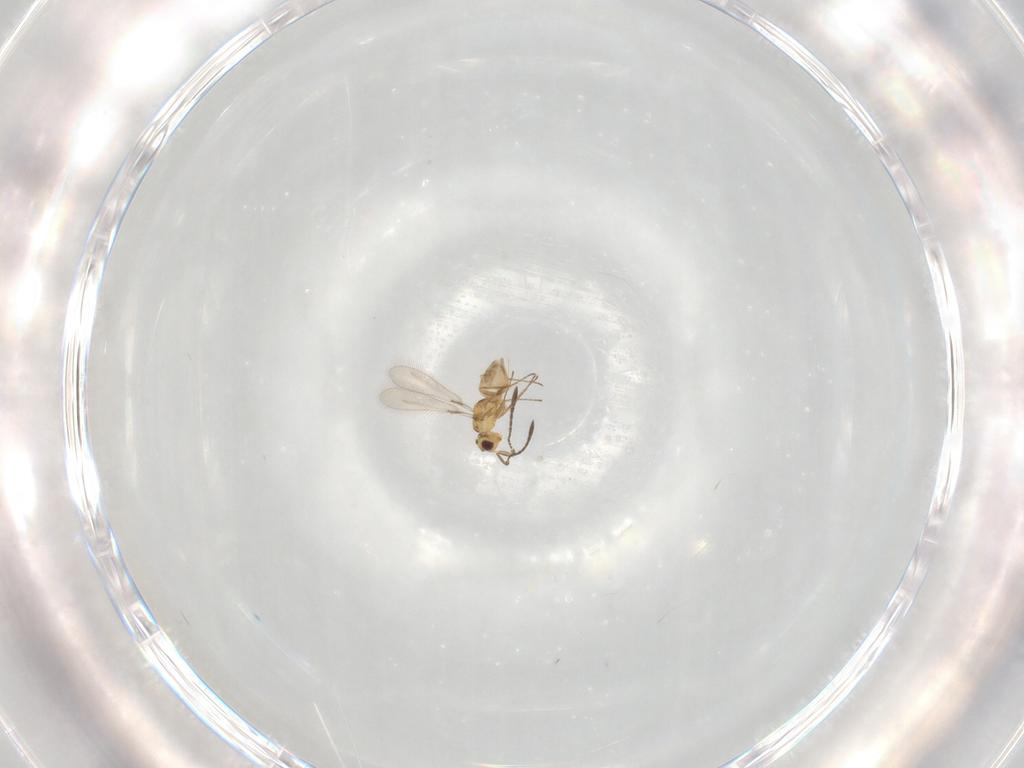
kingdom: Animalia
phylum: Arthropoda
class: Insecta
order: Hymenoptera
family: Mymaridae
